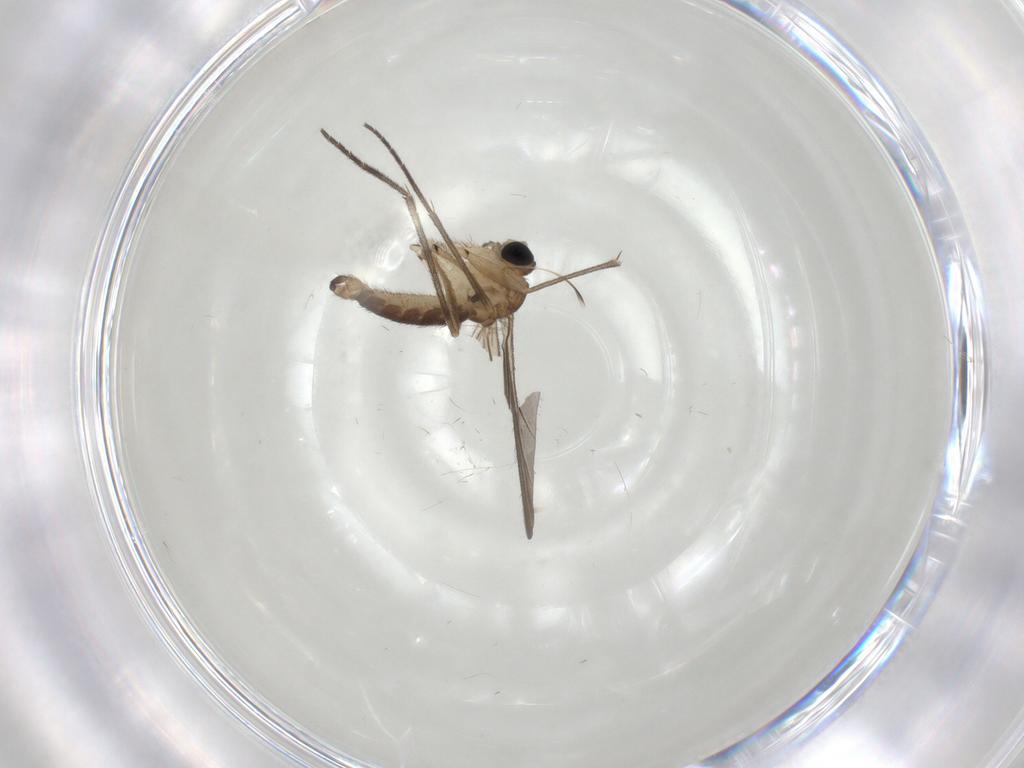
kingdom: Animalia
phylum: Arthropoda
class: Insecta
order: Diptera
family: Sciaridae
